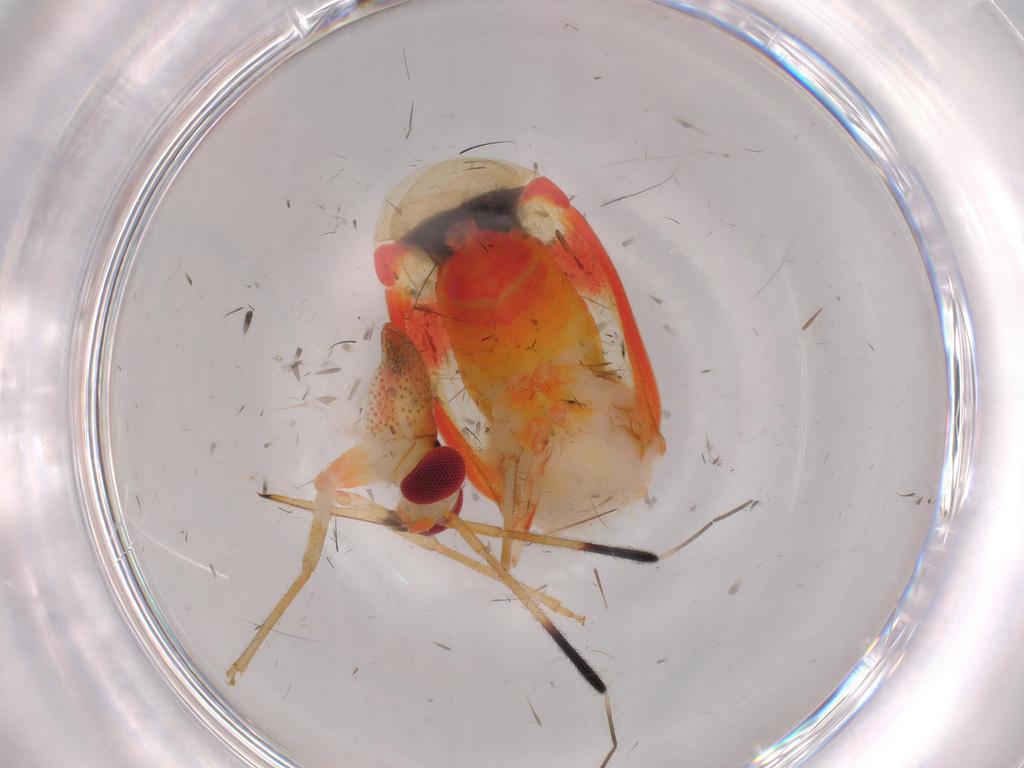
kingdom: Animalia
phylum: Arthropoda
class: Insecta
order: Hemiptera
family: Miridae
